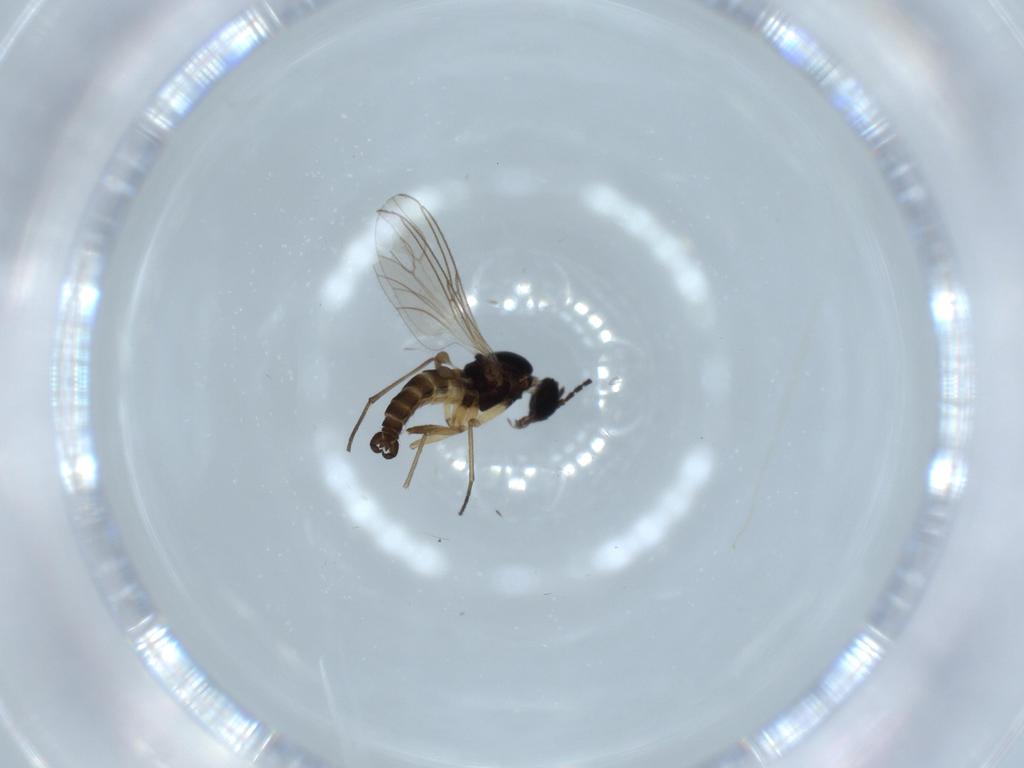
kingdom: Animalia
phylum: Arthropoda
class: Insecta
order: Diptera
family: Sciaridae
